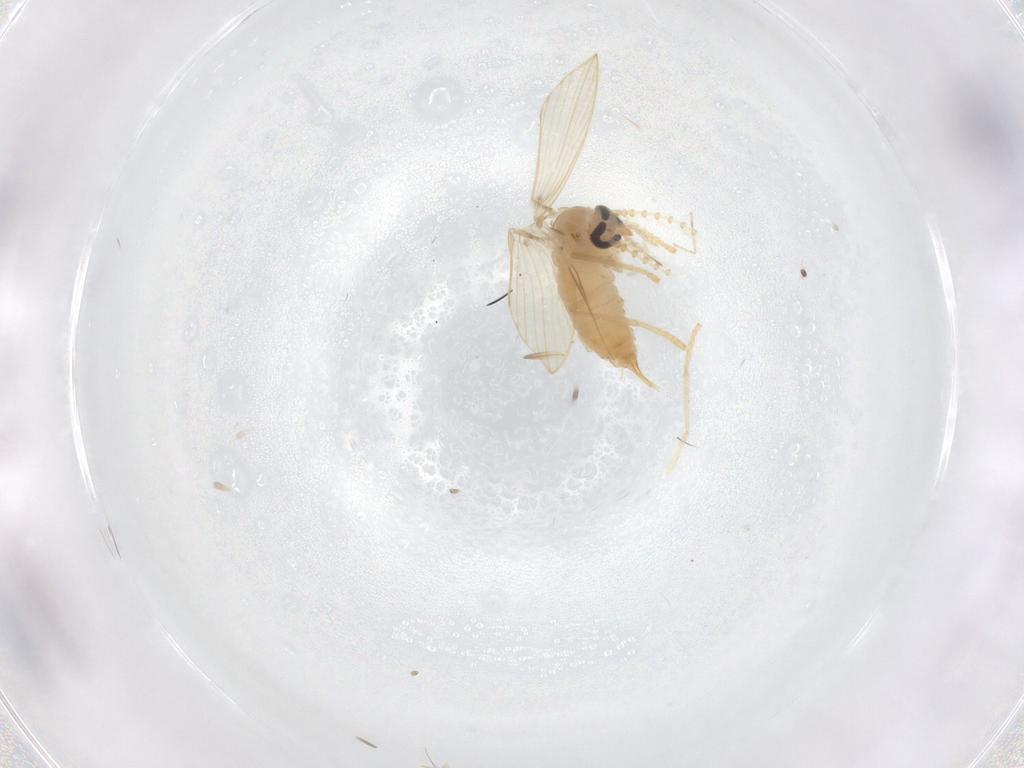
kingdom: Animalia
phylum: Arthropoda
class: Insecta
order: Diptera
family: Psychodidae
